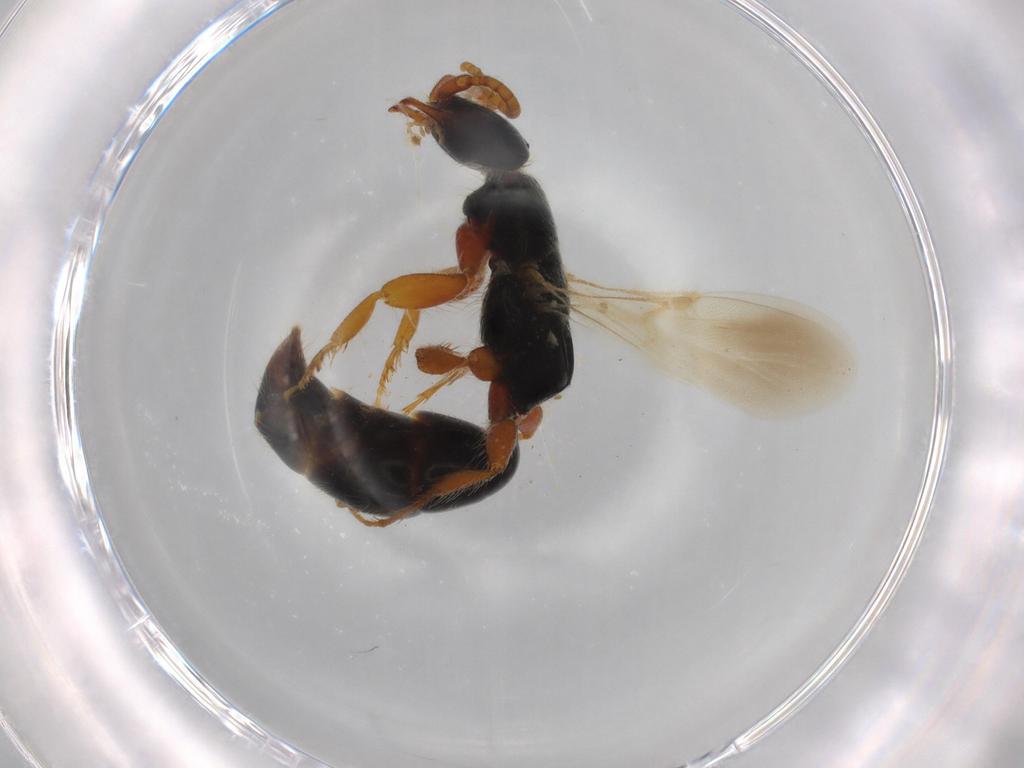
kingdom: Animalia
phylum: Arthropoda
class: Insecta
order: Hymenoptera
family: Bethylidae
